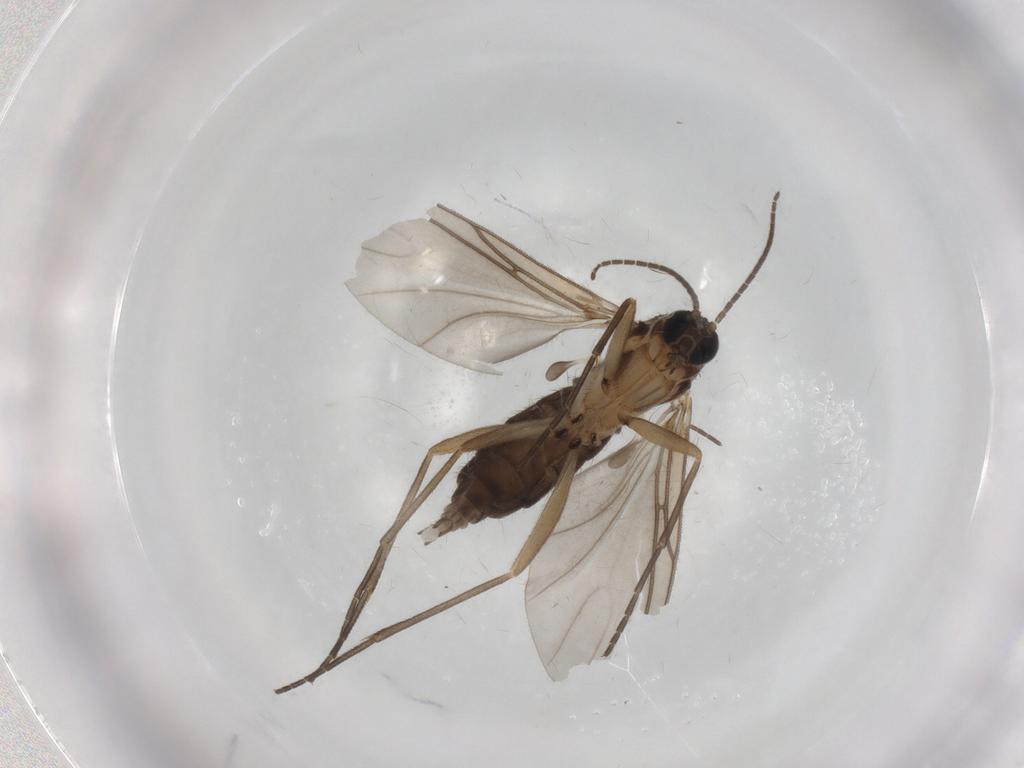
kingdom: Animalia
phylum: Arthropoda
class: Insecta
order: Diptera
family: Sciaridae
